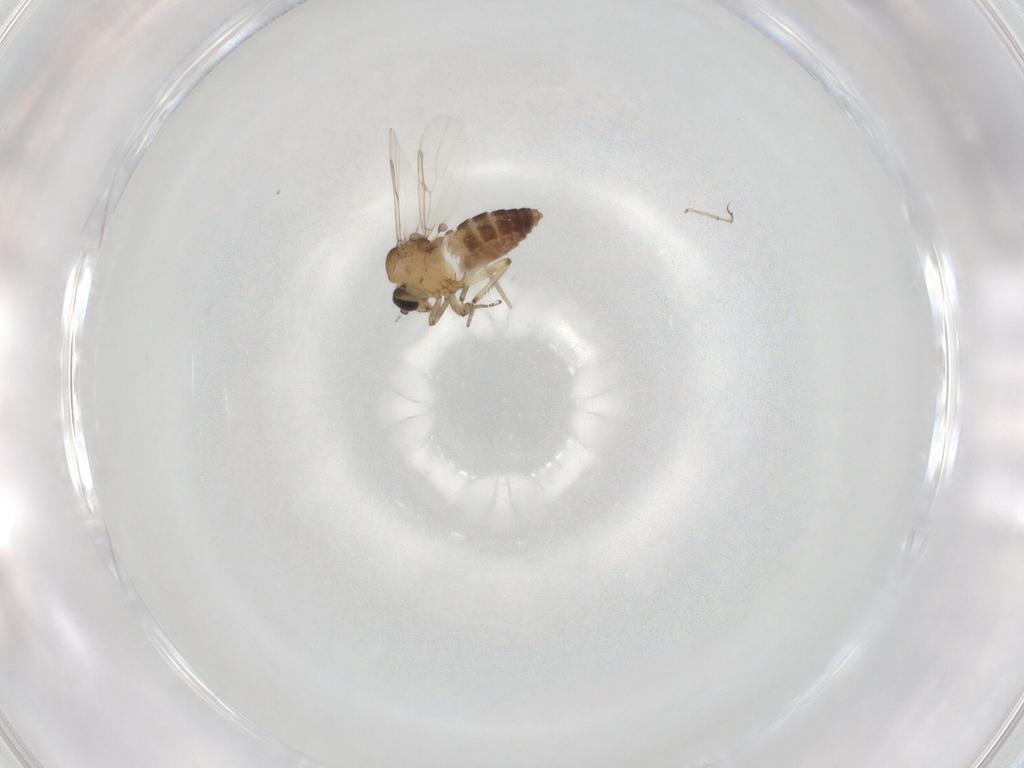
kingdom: Animalia
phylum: Arthropoda
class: Insecta
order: Diptera
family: Ceratopogonidae
